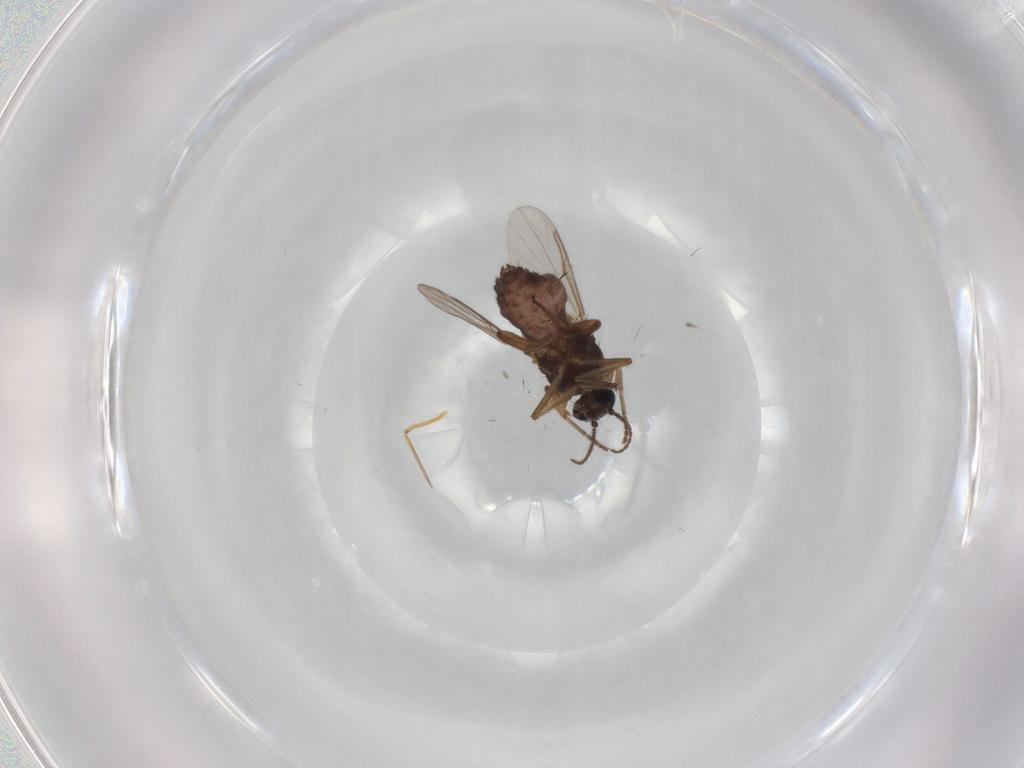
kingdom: Animalia
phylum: Arthropoda
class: Insecta
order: Diptera
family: Ceratopogonidae
